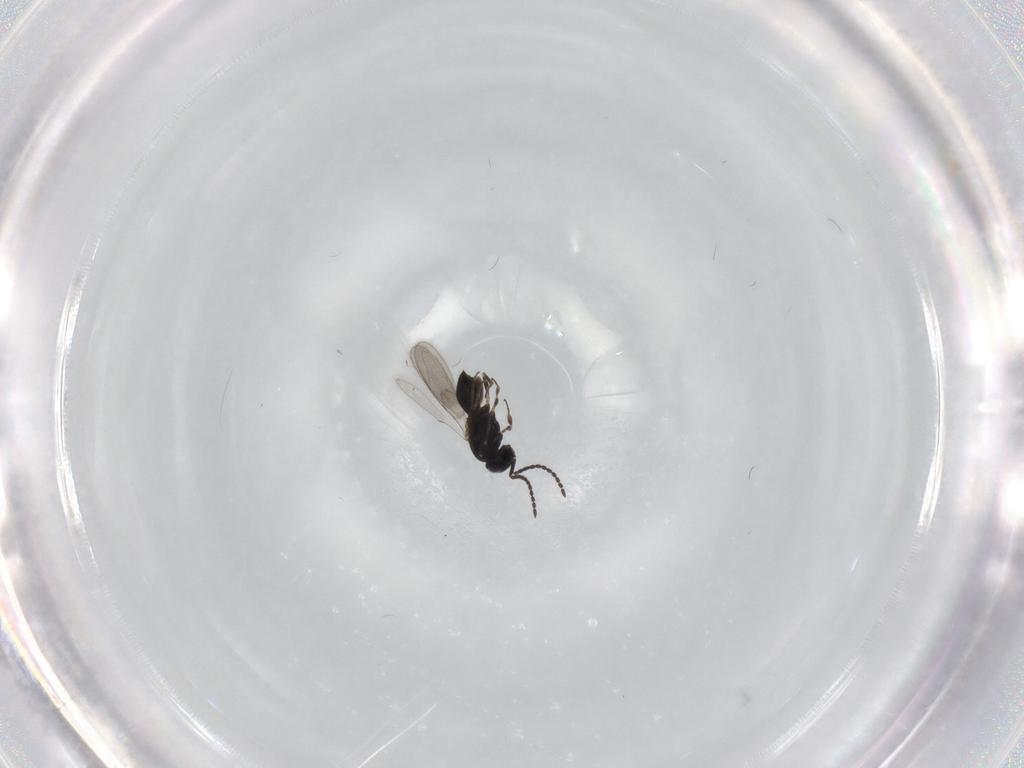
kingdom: Animalia
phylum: Arthropoda
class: Insecta
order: Hymenoptera
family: Scelionidae
